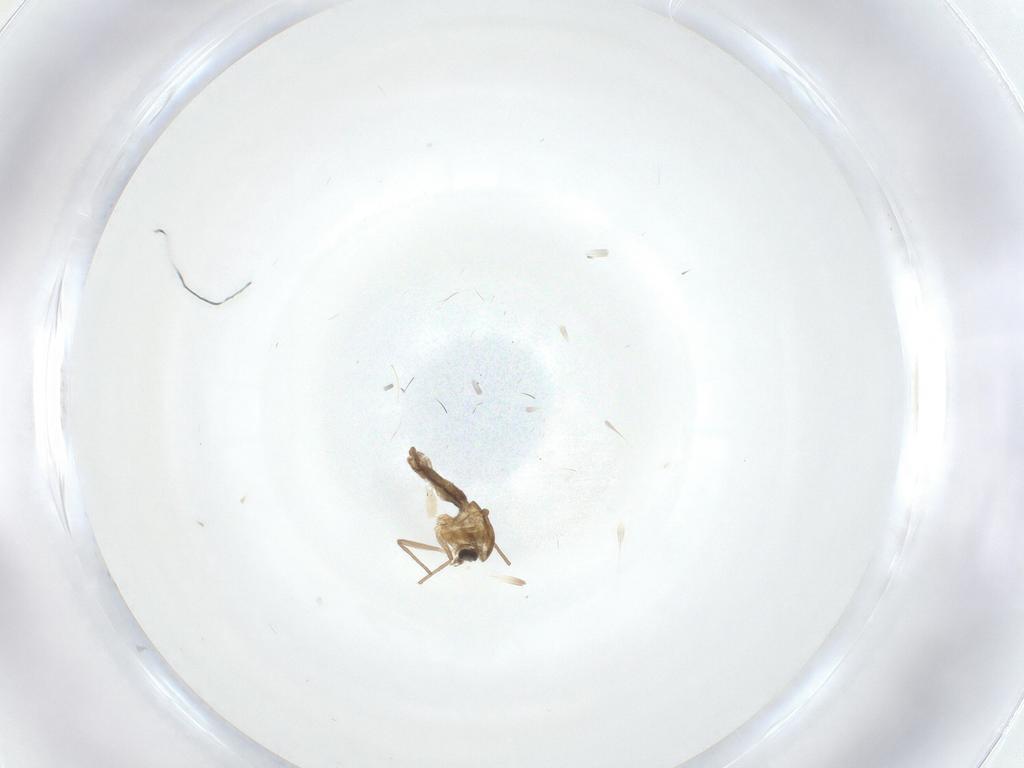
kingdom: Animalia
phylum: Arthropoda
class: Insecta
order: Diptera
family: Chironomidae
